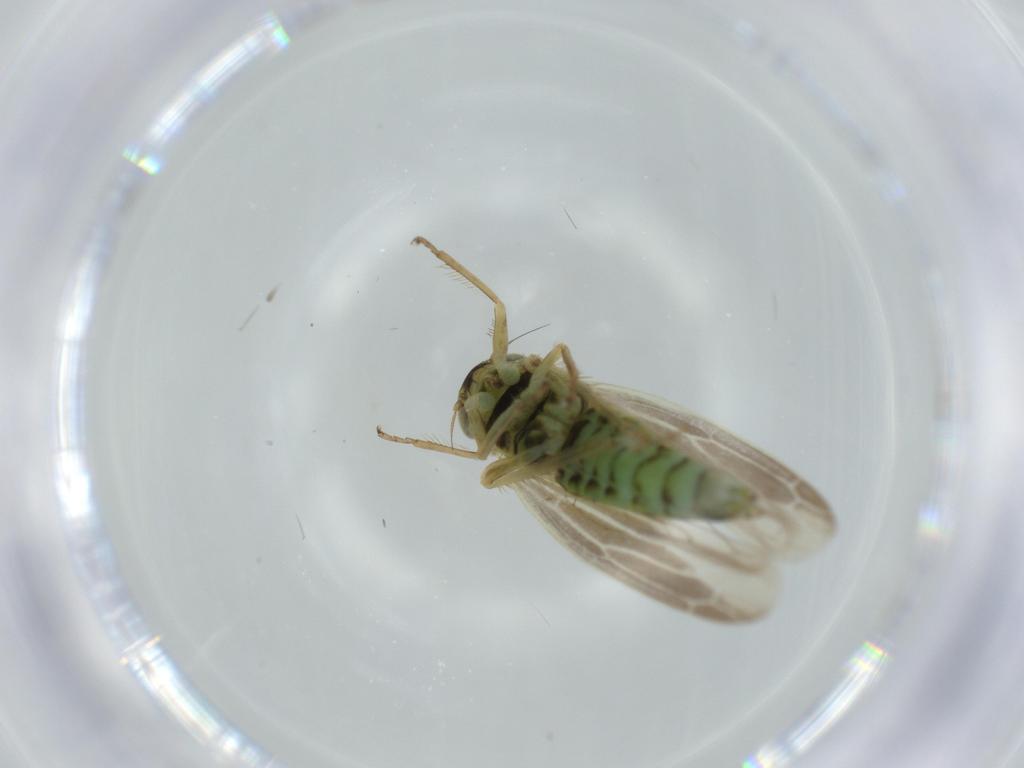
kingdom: Animalia
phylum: Arthropoda
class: Insecta
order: Hemiptera
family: Cicadellidae
